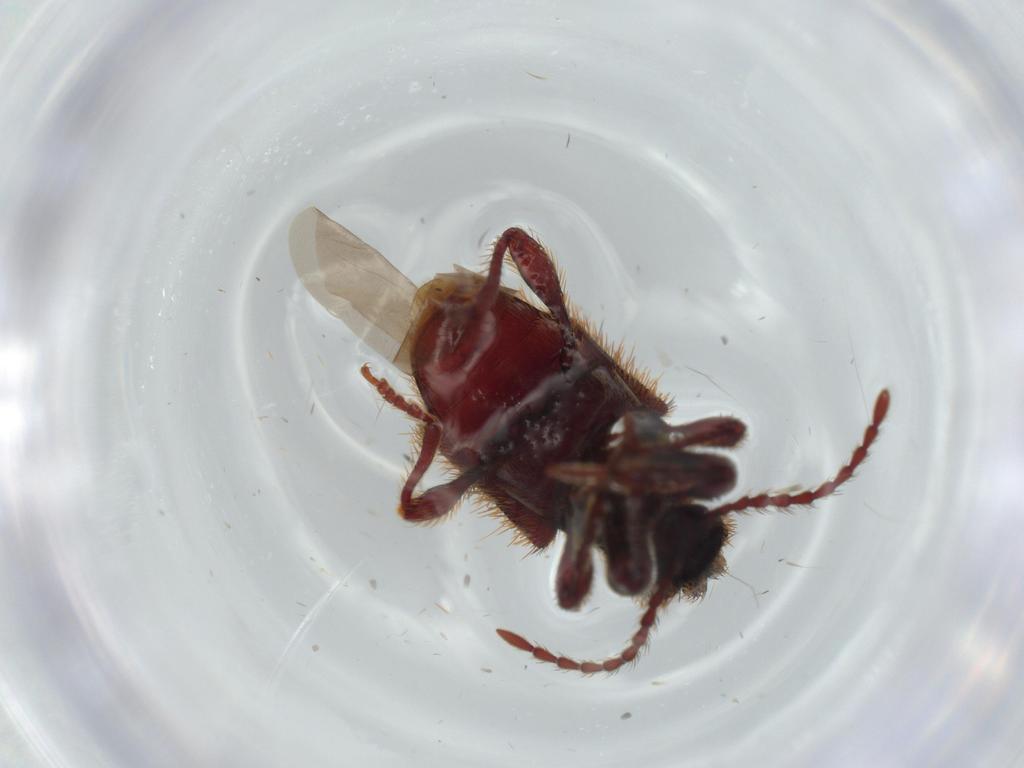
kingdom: Animalia
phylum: Arthropoda
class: Insecta
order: Coleoptera
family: Ptinidae
